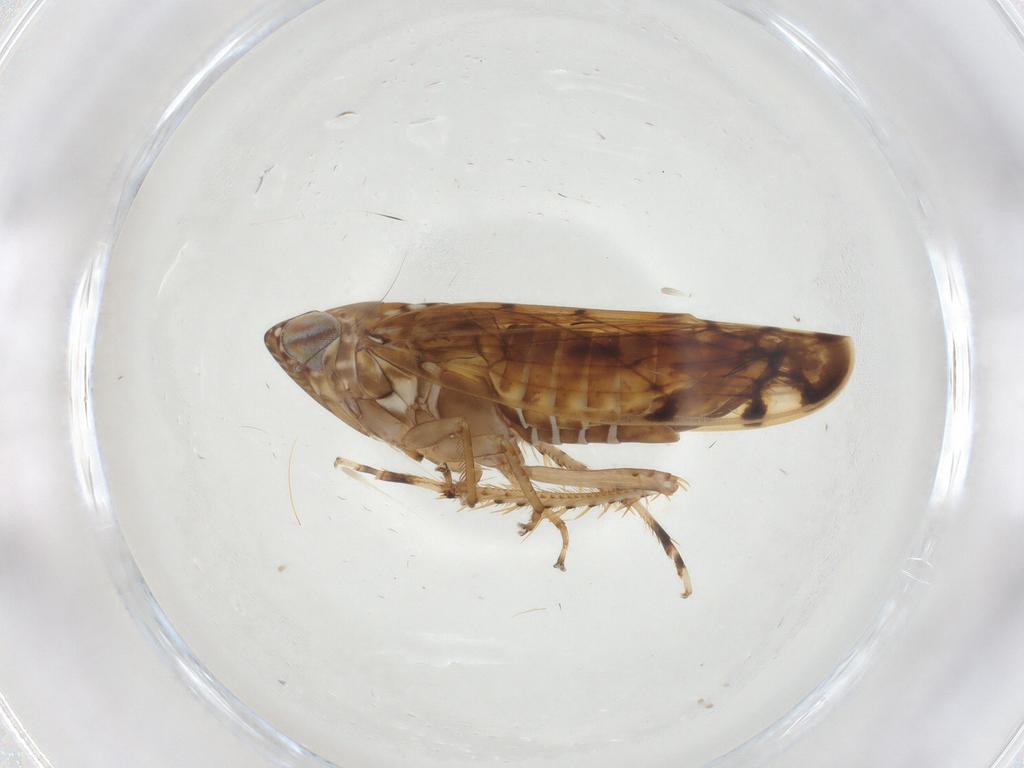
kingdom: Animalia
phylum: Arthropoda
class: Insecta
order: Hemiptera
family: Cicadellidae
